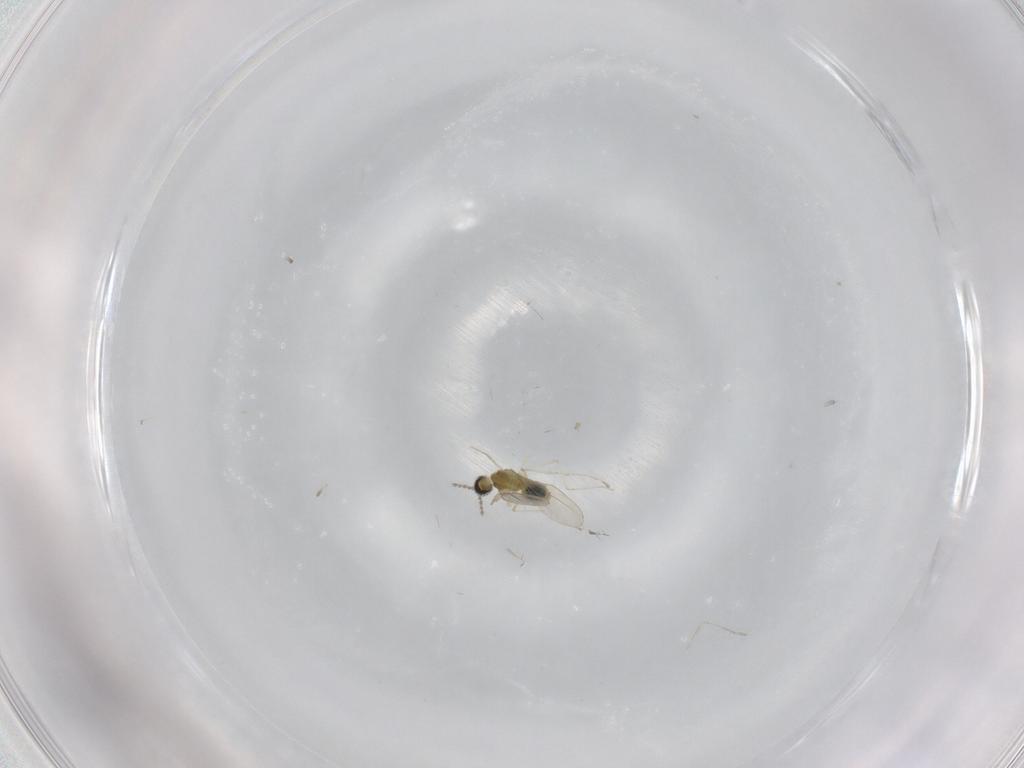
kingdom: Animalia
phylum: Arthropoda
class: Insecta
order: Diptera
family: Cecidomyiidae
